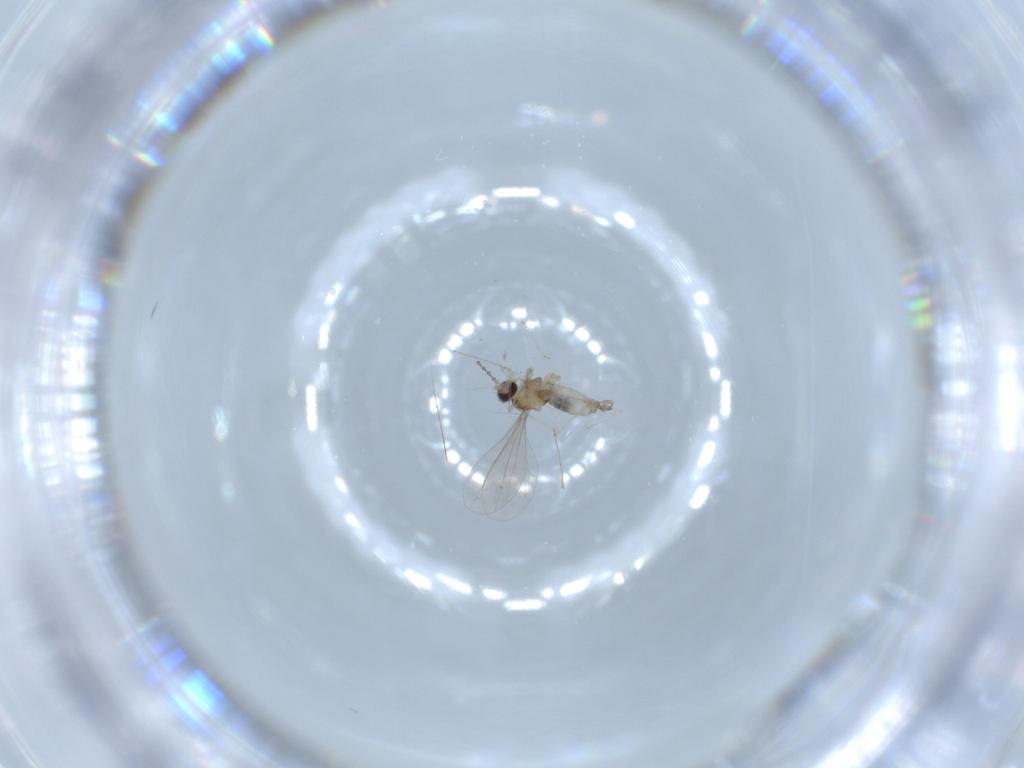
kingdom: Animalia
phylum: Arthropoda
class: Insecta
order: Diptera
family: Cecidomyiidae
